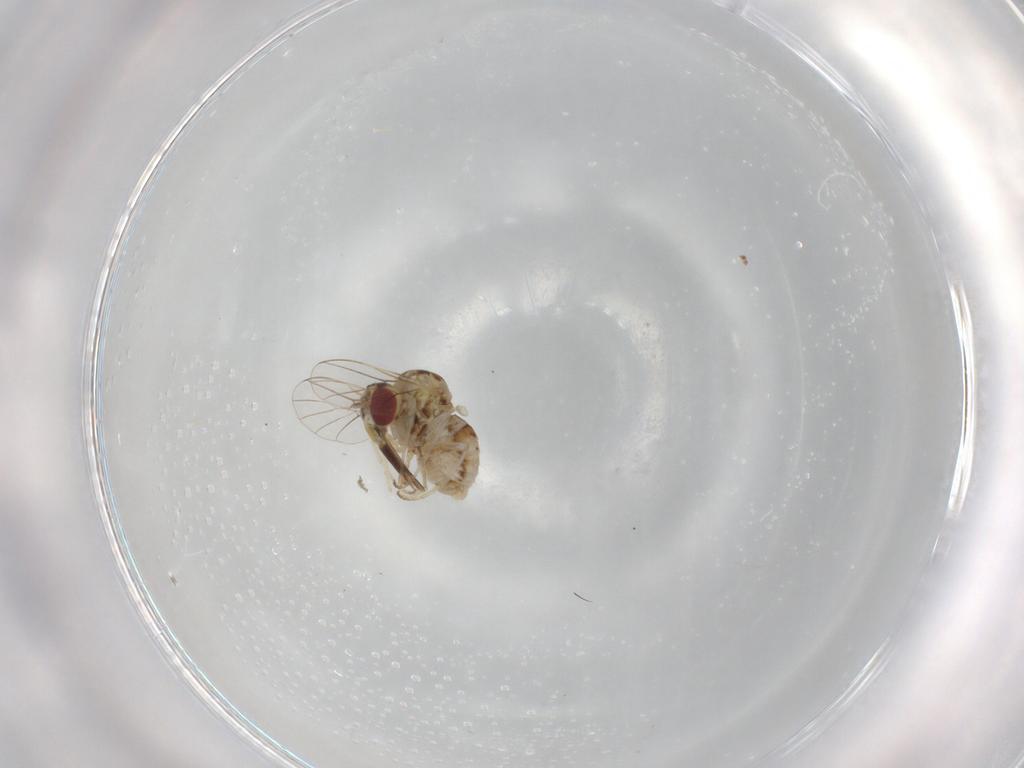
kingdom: Animalia
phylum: Arthropoda
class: Insecta
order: Diptera
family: Bombyliidae
